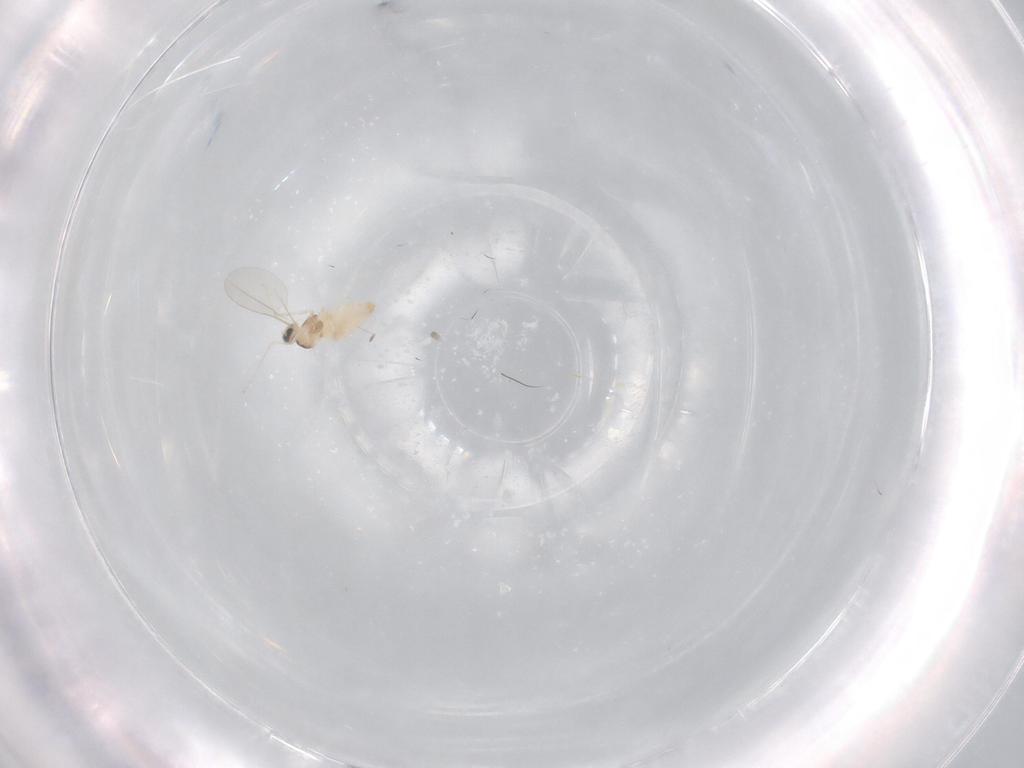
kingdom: Animalia
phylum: Arthropoda
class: Insecta
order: Diptera
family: Cecidomyiidae
